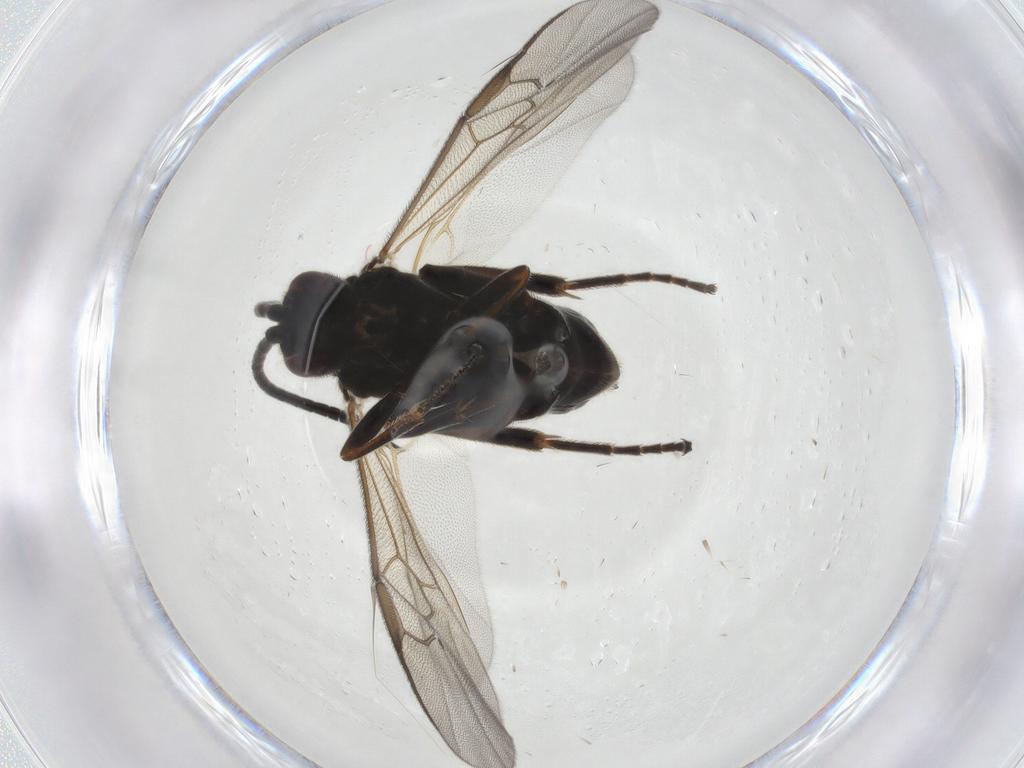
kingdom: Animalia
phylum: Arthropoda
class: Insecta
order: Hymenoptera
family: Braconidae
